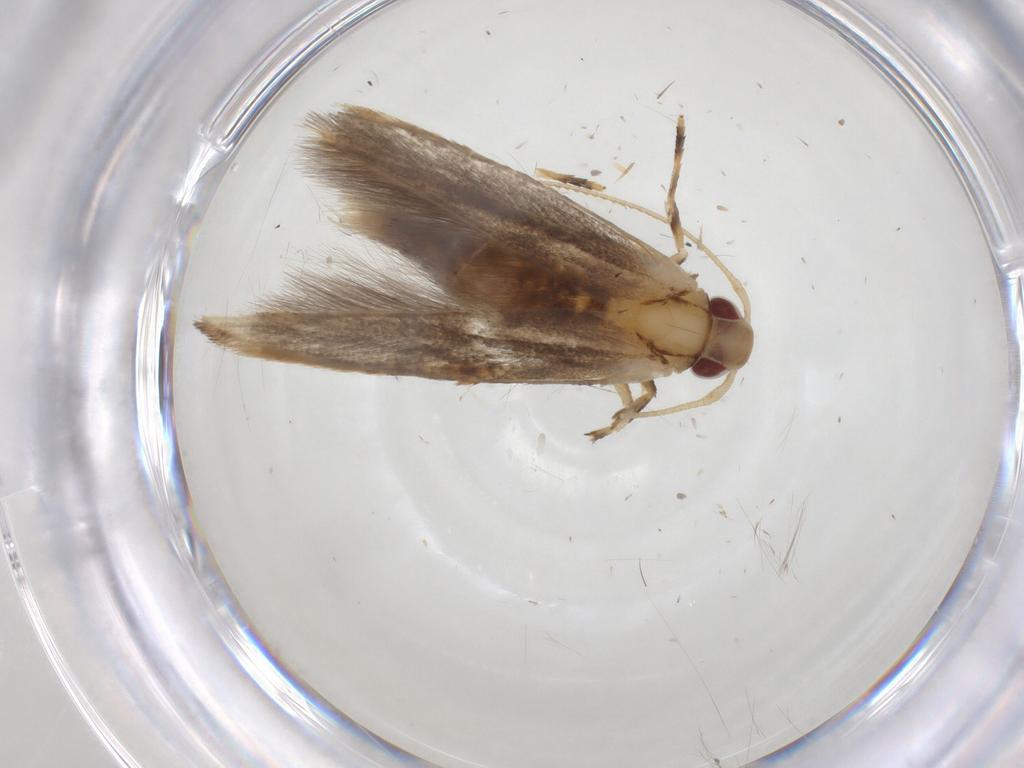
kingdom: Animalia
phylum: Arthropoda
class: Insecta
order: Lepidoptera
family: Cosmopterigidae
